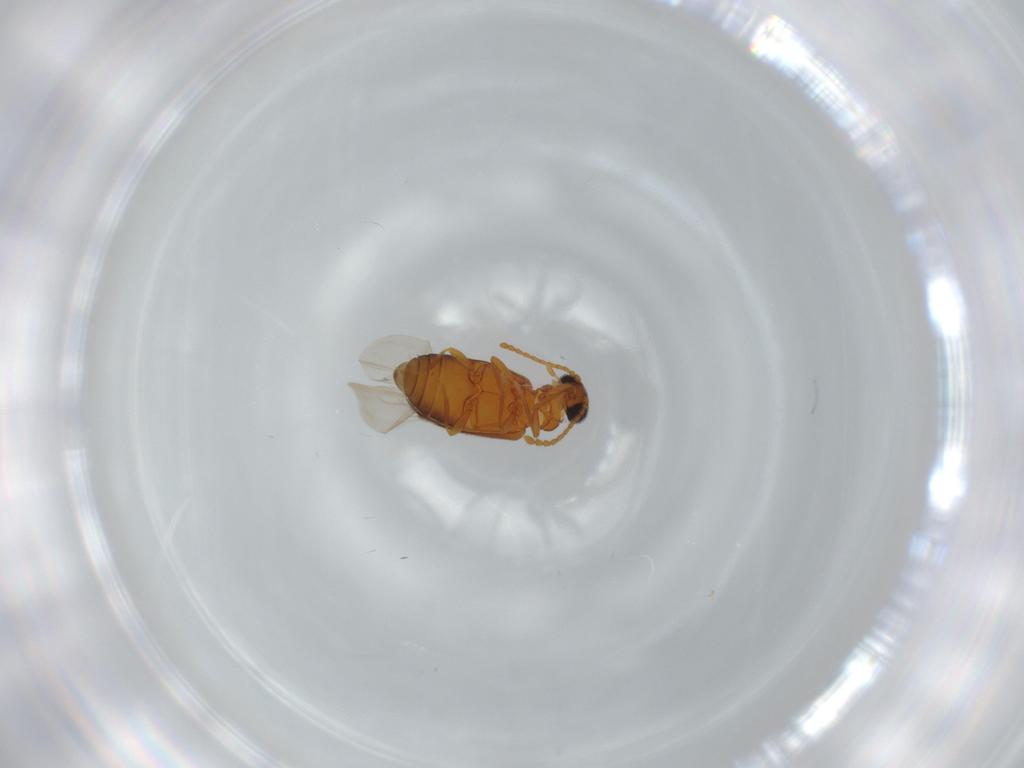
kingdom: Animalia
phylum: Arthropoda
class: Insecta
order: Coleoptera
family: Aderidae
